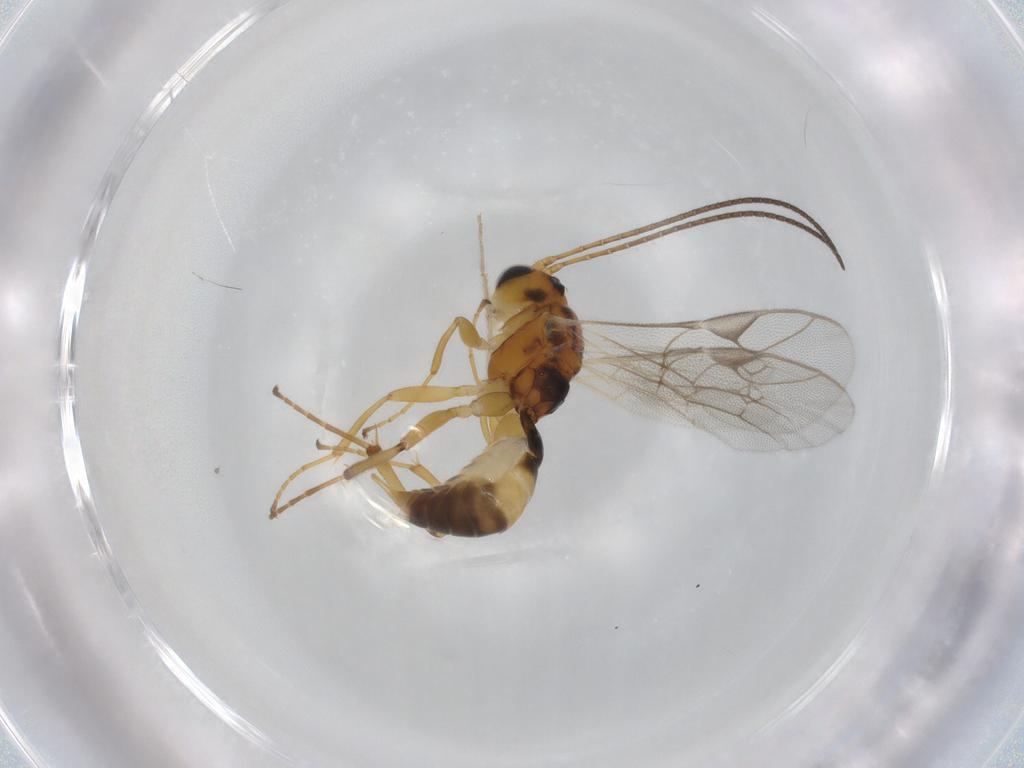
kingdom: Animalia
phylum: Arthropoda
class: Insecta
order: Hymenoptera
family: Ichneumonidae
